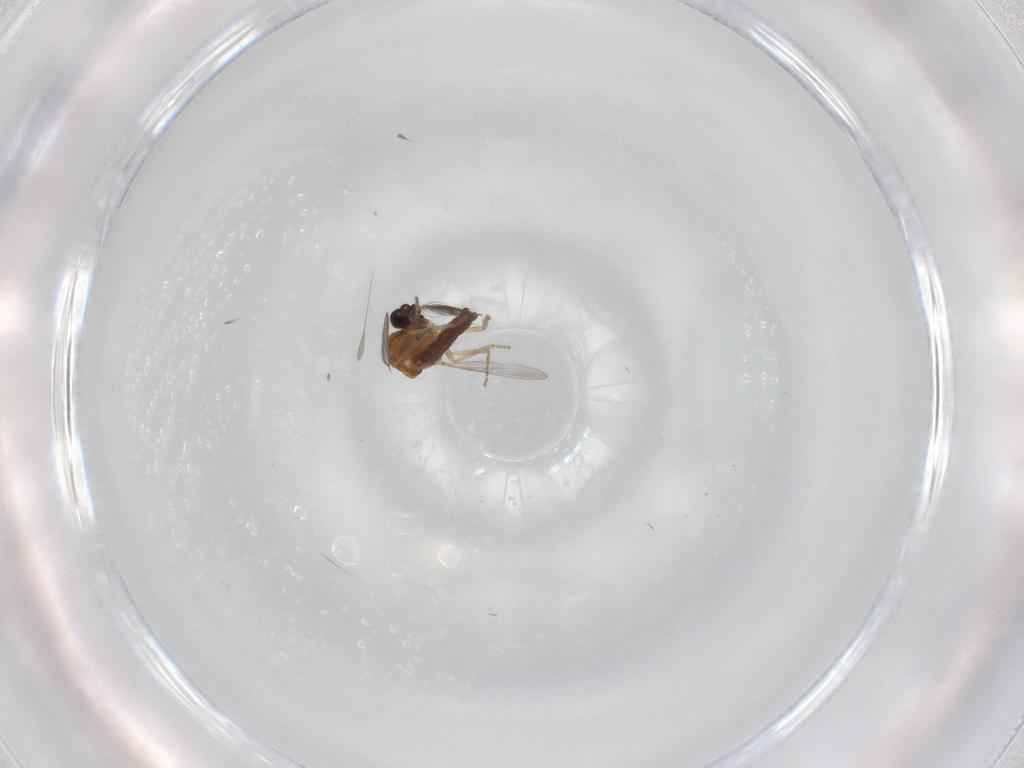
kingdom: Animalia
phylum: Arthropoda
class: Insecta
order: Diptera
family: Ceratopogonidae
